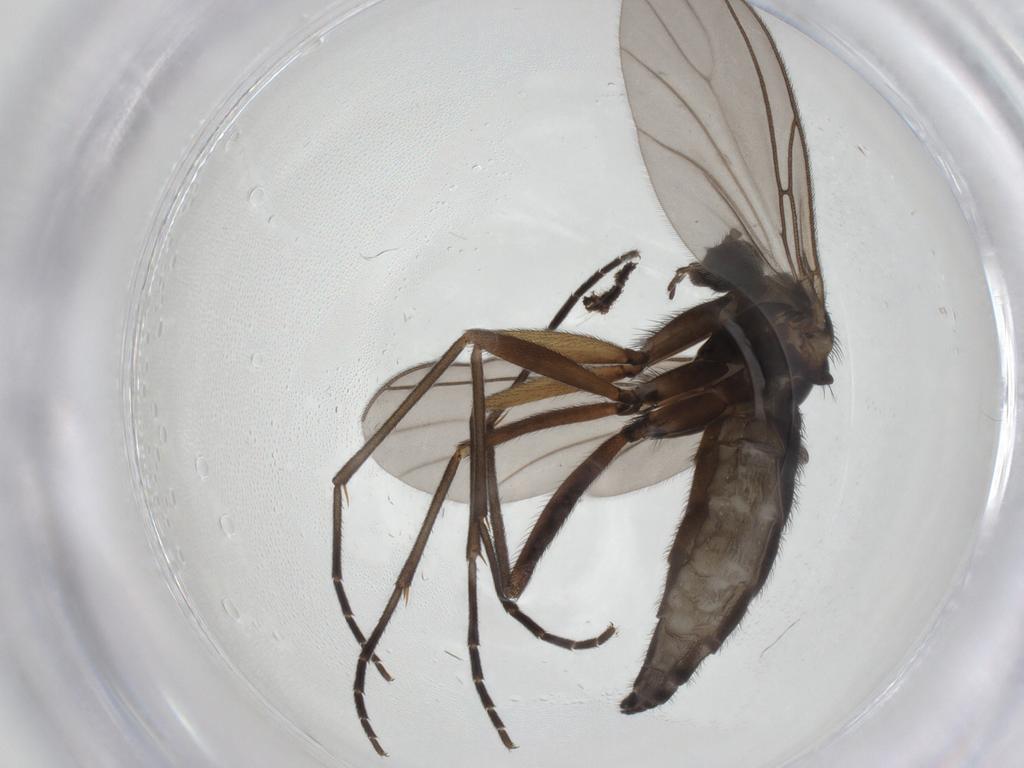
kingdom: Animalia
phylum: Arthropoda
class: Insecta
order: Diptera
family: Sciaridae
